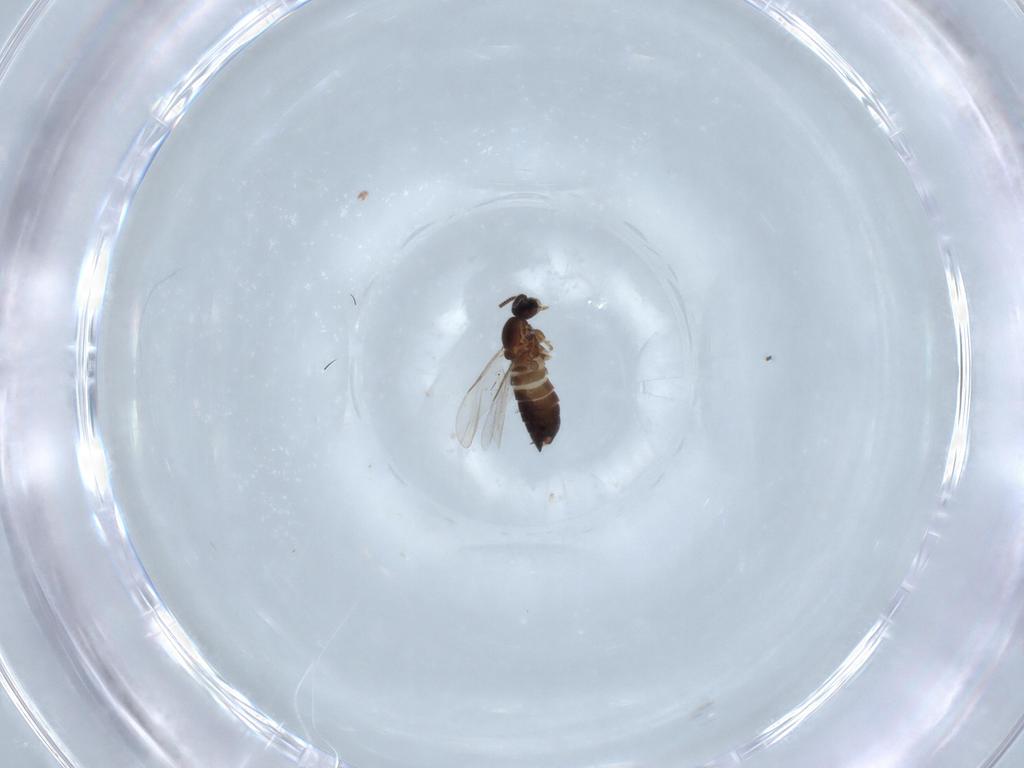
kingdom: Animalia
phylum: Arthropoda
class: Insecta
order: Diptera
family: Scatopsidae
